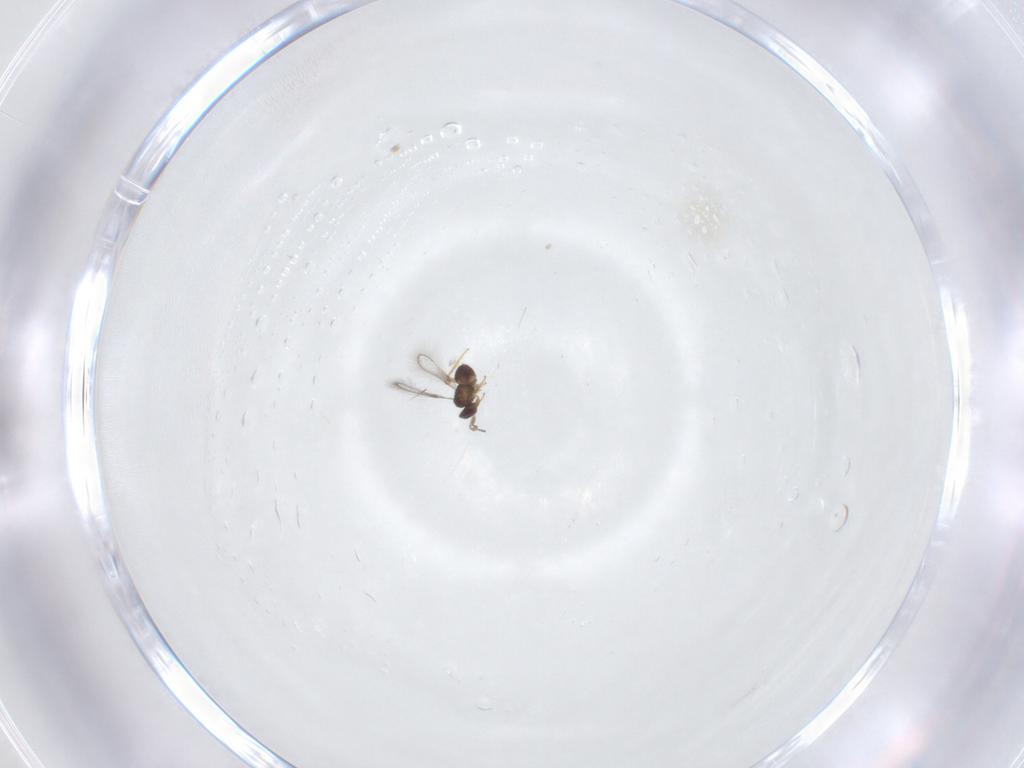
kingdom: Animalia
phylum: Arthropoda
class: Insecta
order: Hymenoptera
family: Mymaridae
